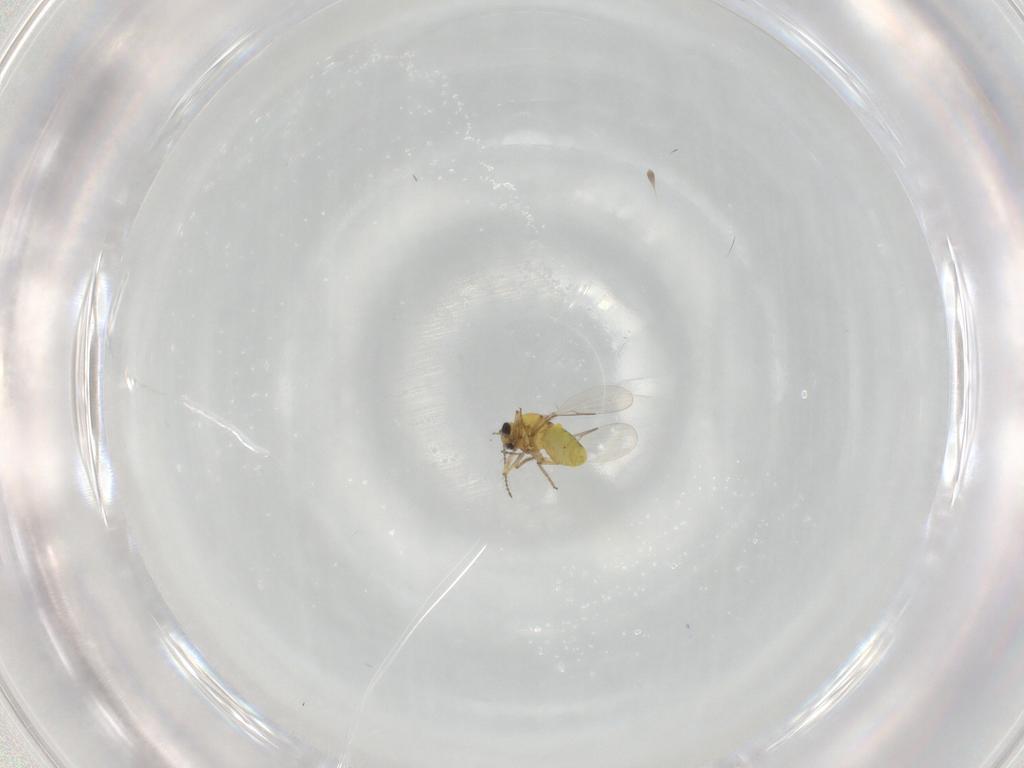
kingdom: Animalia
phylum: Arthropoda
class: Insecta
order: Diptera
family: Ceratopogonidae
